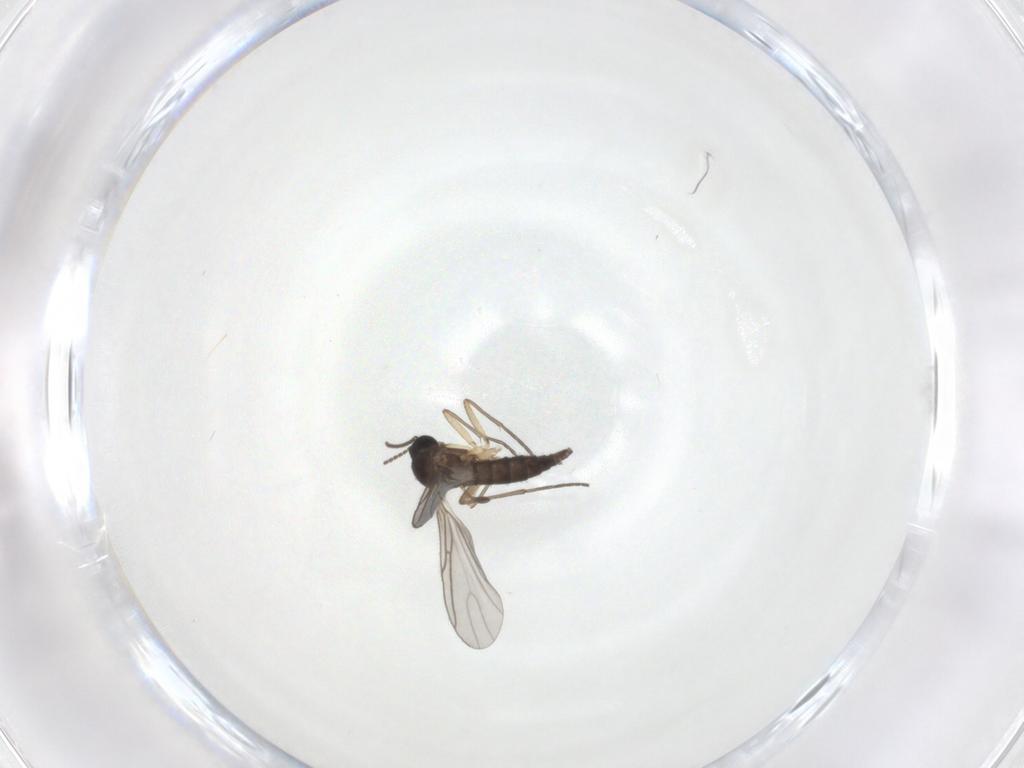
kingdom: Animalia
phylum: Arthropoda
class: Insecta
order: Diptera
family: Sciaridae
